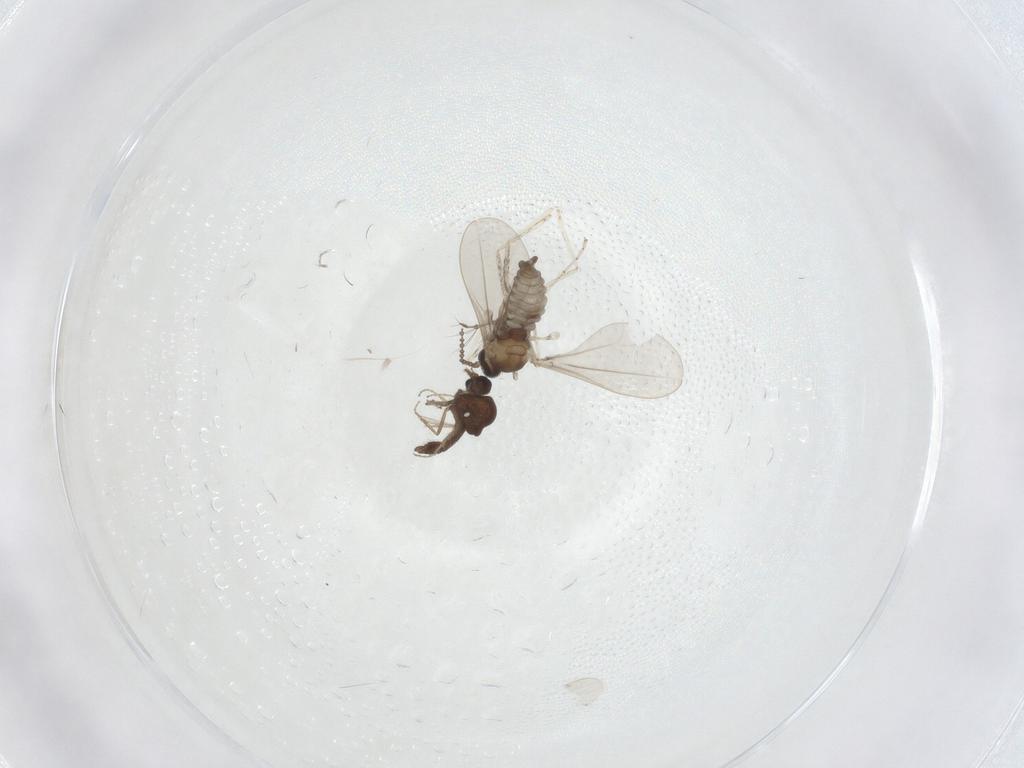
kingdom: Animalia
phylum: Arthropoda
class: Insecta
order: Diptera
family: Ceratopogonidae
